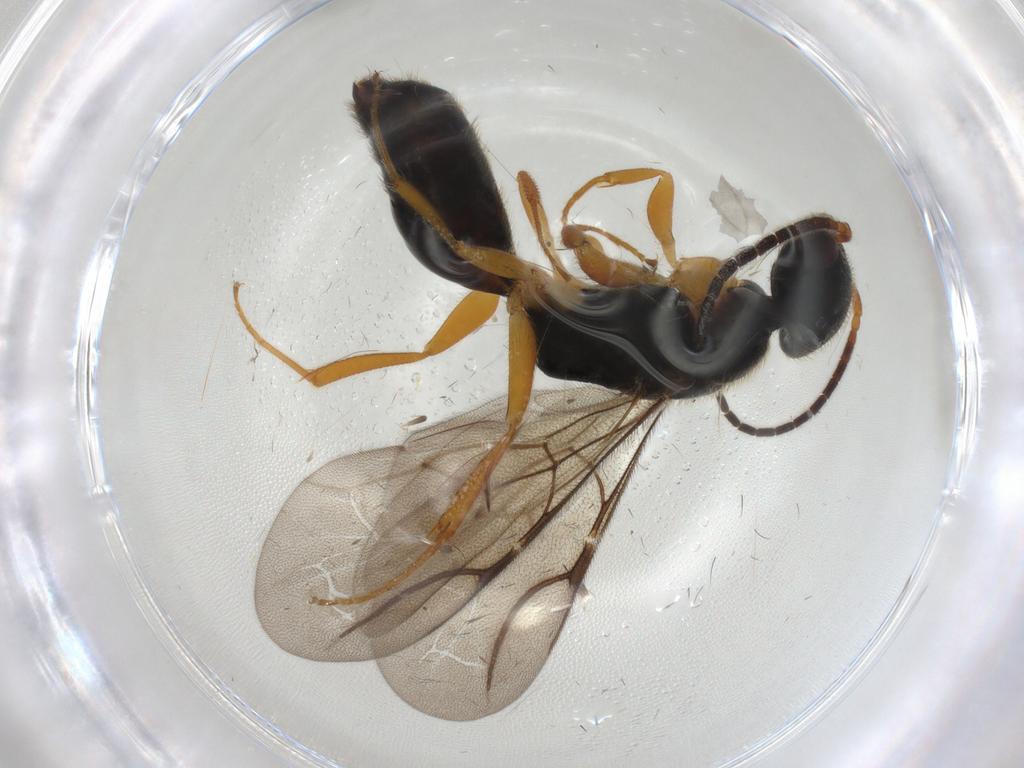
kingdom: Animalia
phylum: Arthropoda
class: Insecta
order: Hymenoptera
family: Bethylidae
